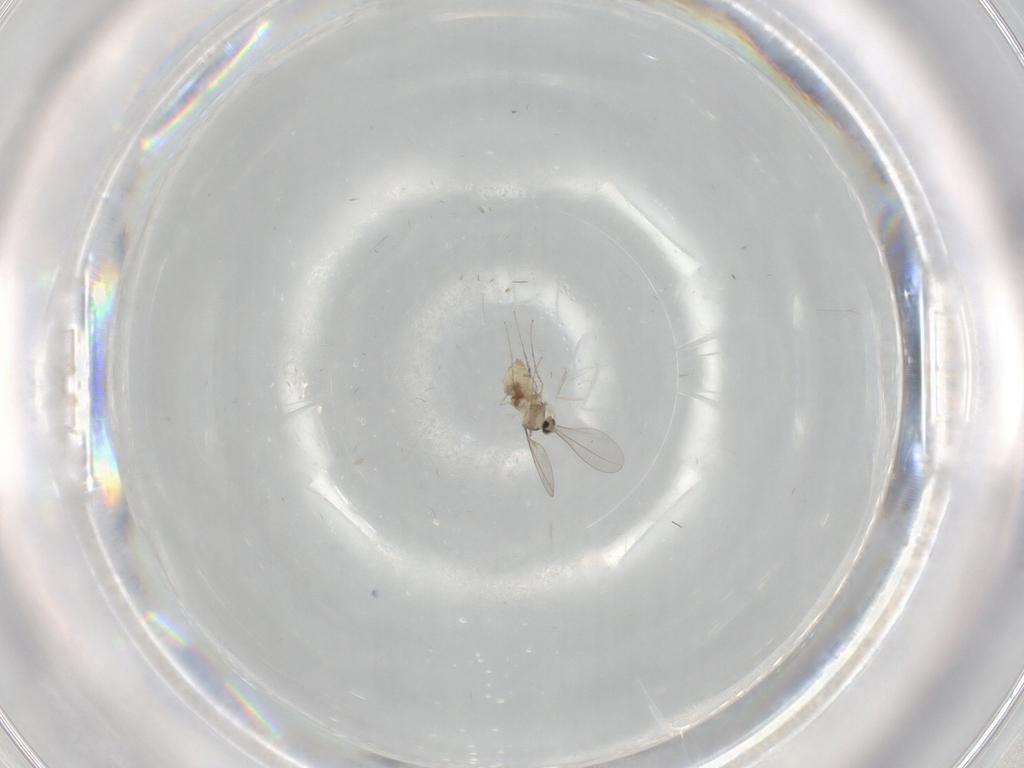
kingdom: Animalia
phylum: Arthropoda
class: Insecta
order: Diptera
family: Cecidomyiidae
